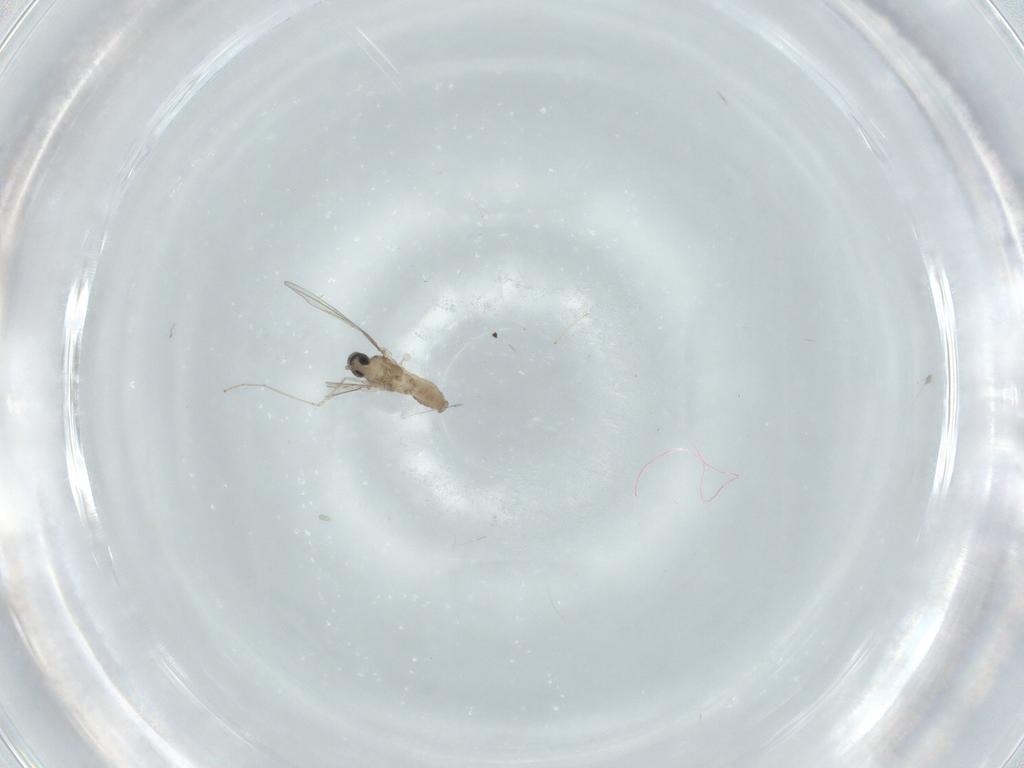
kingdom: Animalia
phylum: Arthropoda
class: Insecta
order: Diptera
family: Cecidomyiidae
